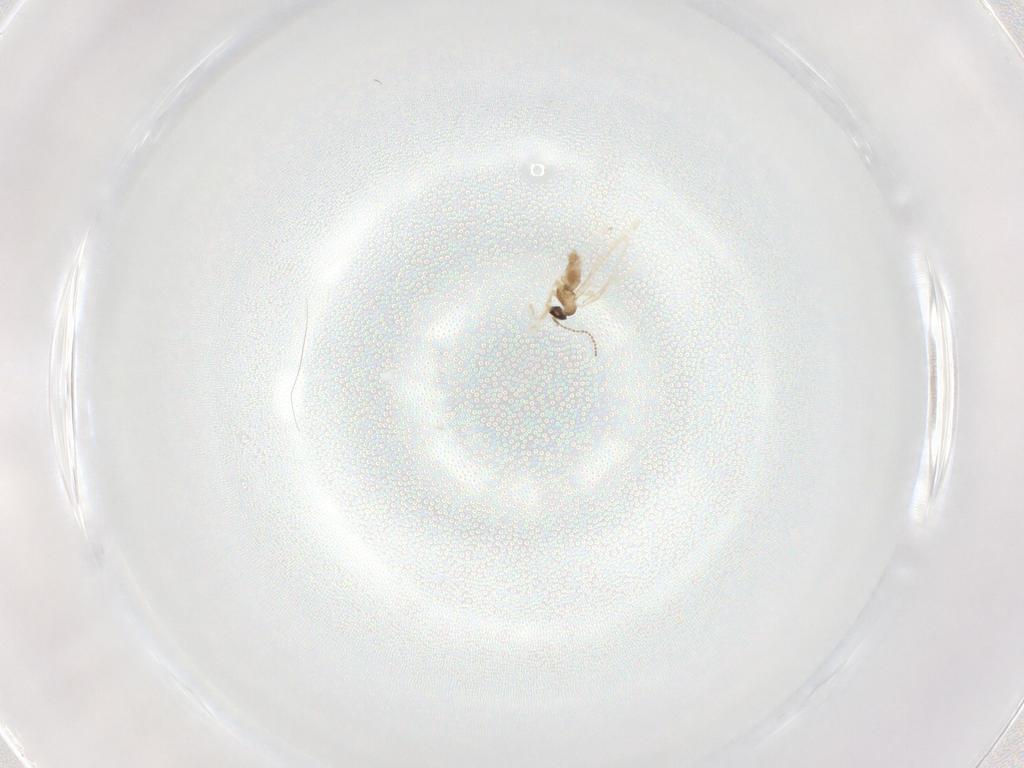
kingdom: Animalia
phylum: Arthropoda
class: Insecta
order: Diptera
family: Cecidomyiidae
